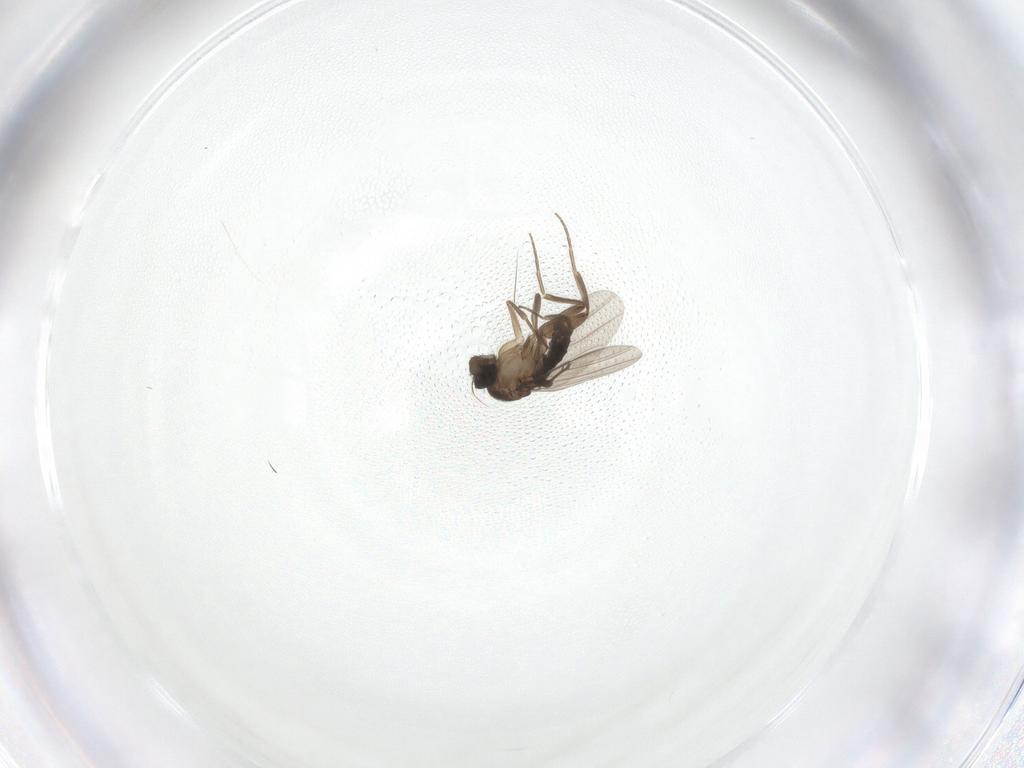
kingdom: Animalia
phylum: Arthropoda
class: Insecta
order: Diptera
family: Phoridae
